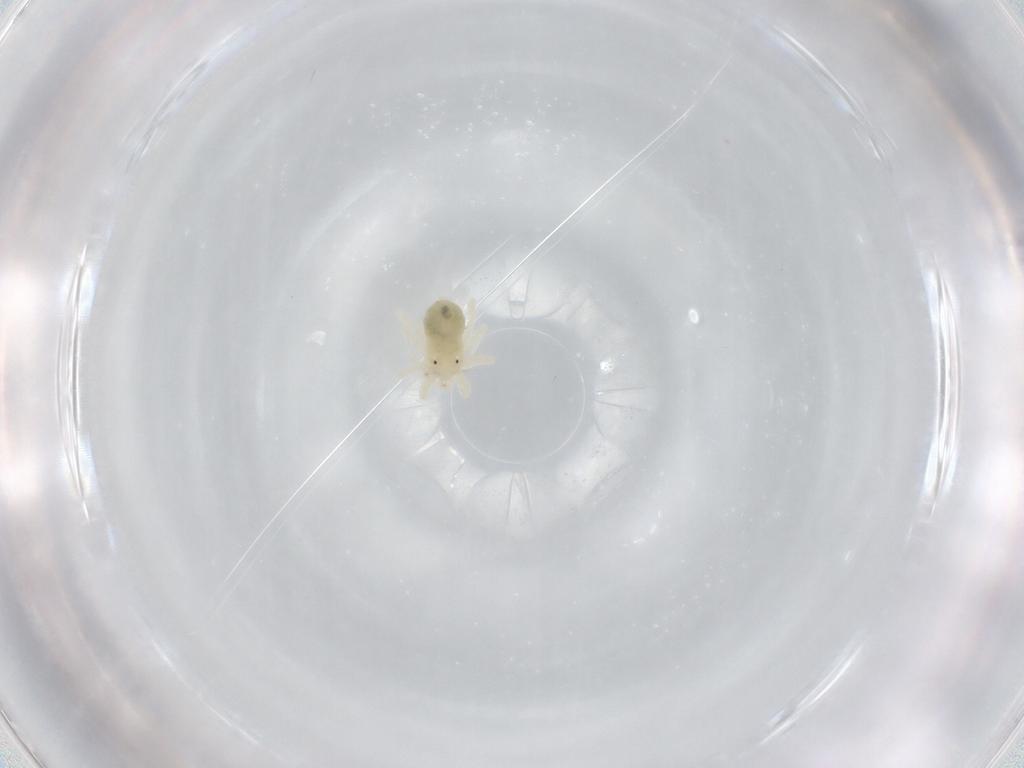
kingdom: Animalia
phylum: Arthropoda
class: Arachnida
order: Trombidiformes
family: Anystidae
